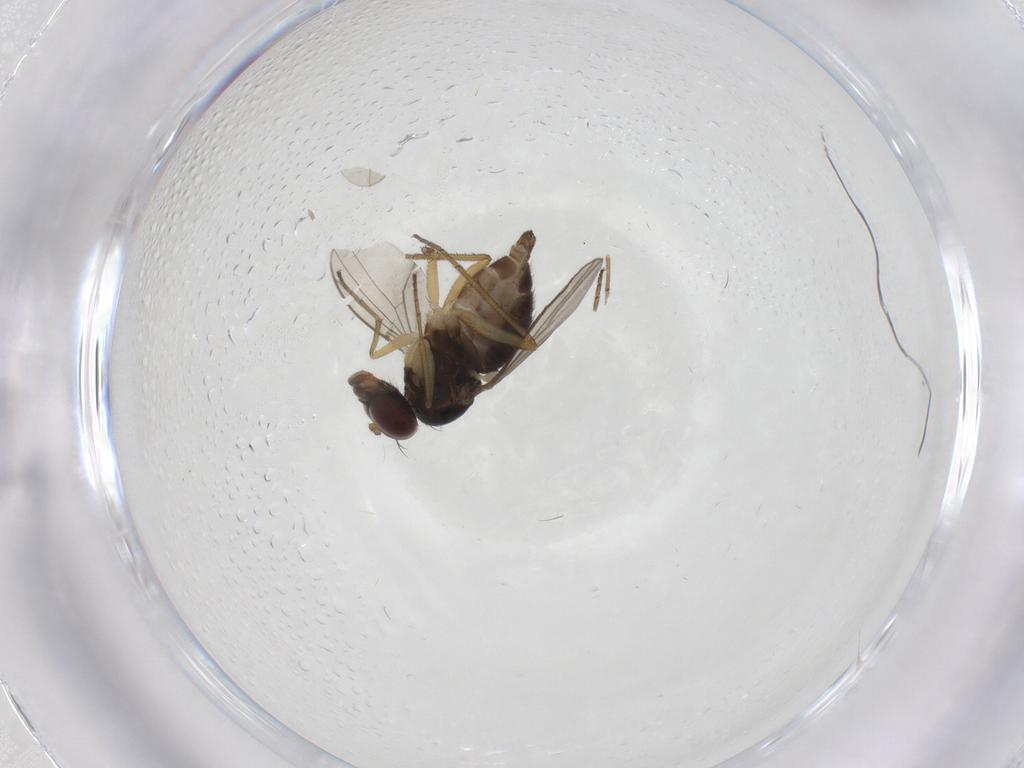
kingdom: Animalia
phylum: Arthropoda
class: Insecta
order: Diptera
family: Dolichopodidae
